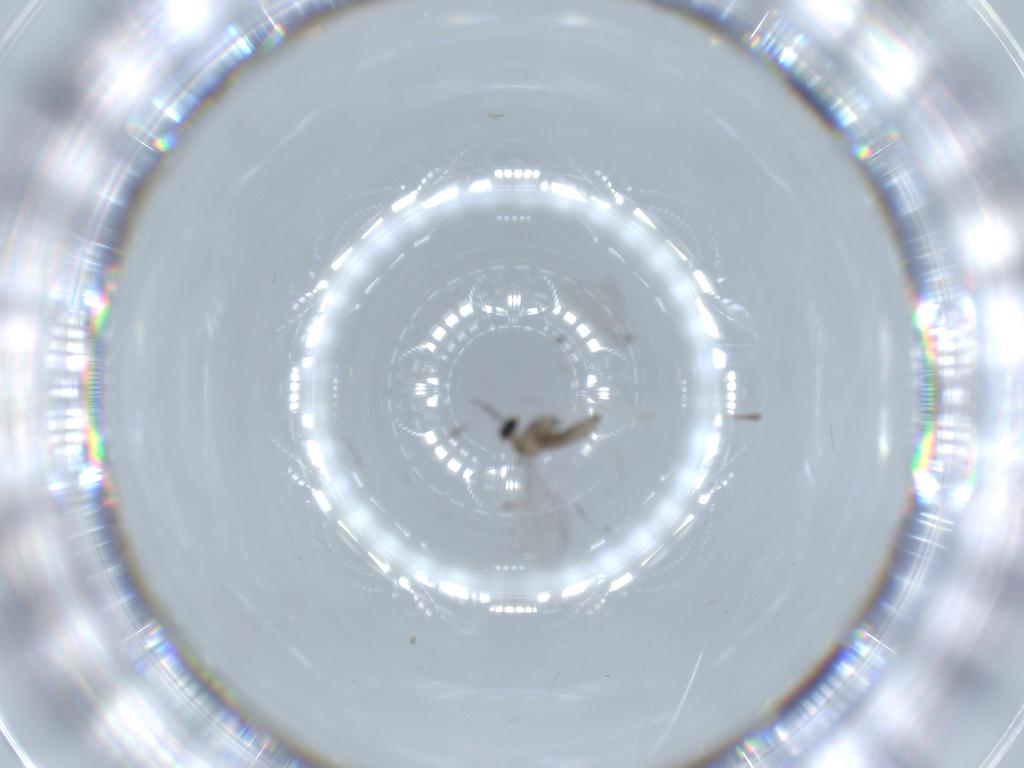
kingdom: Animalia
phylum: Arthropoda
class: Insecta
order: Diptera
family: Cecidomyiidae
